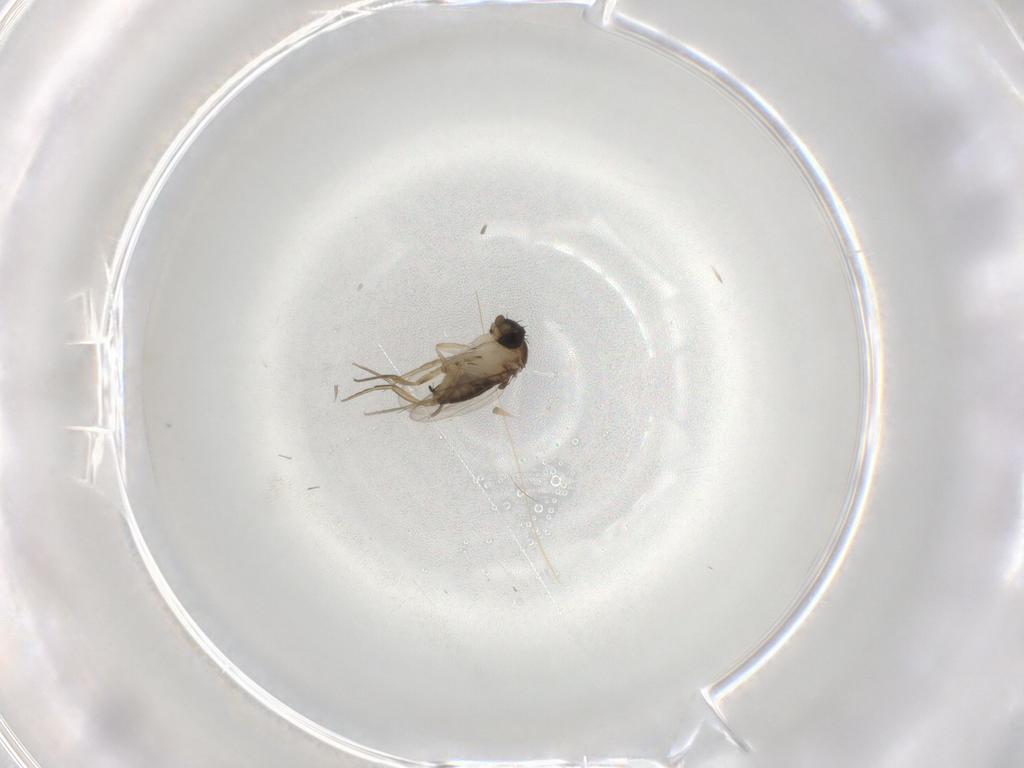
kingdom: Animalia
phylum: Arthropoda
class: Insecta
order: Diptera
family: Cecidomyiidae
